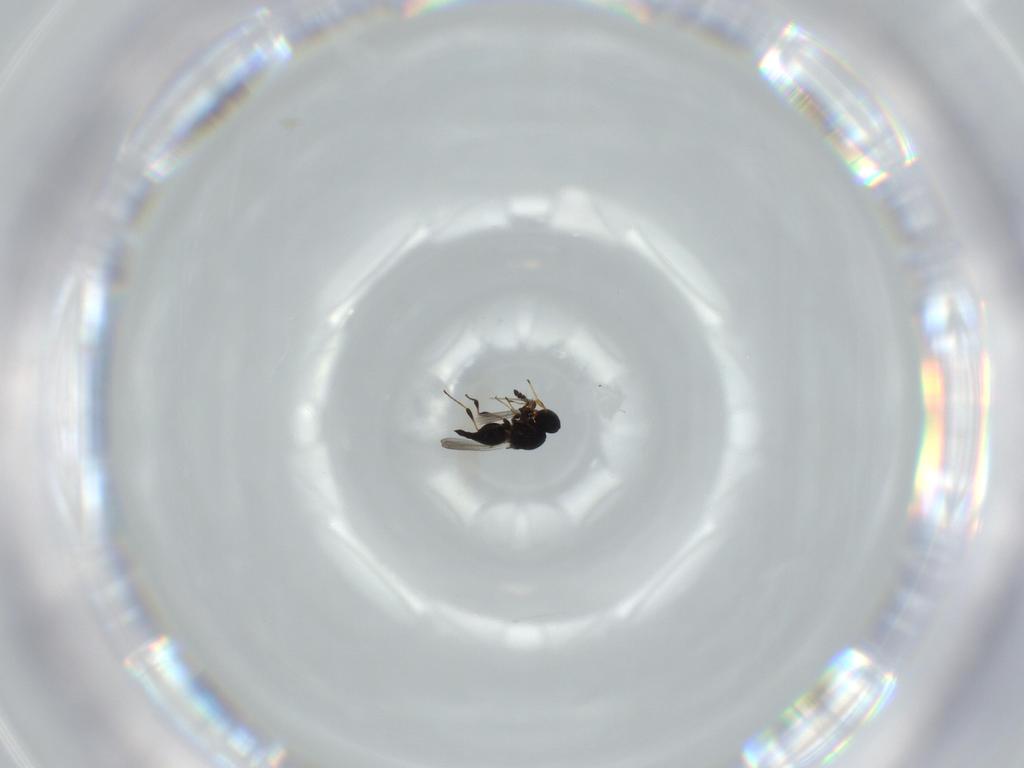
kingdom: Animalia
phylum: Arthropoda
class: Insecta
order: Hymenoptera
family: Platygastridae
